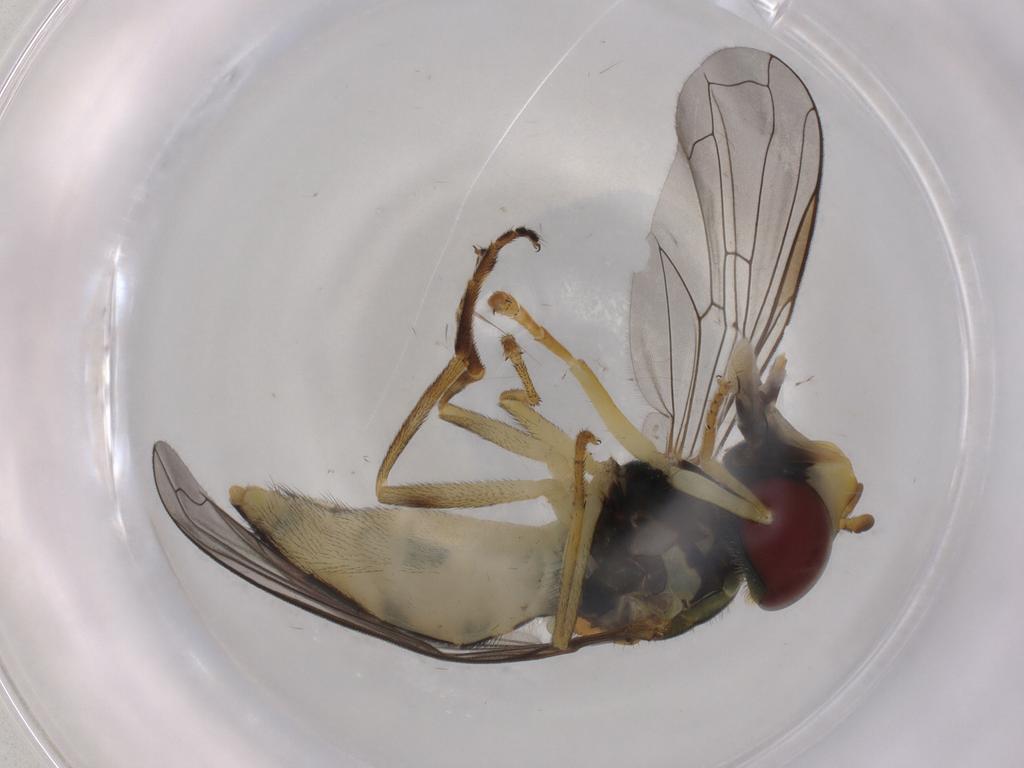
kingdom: Animalia
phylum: Arthropoda
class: Insecta
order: Diptera
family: Syrphidae
